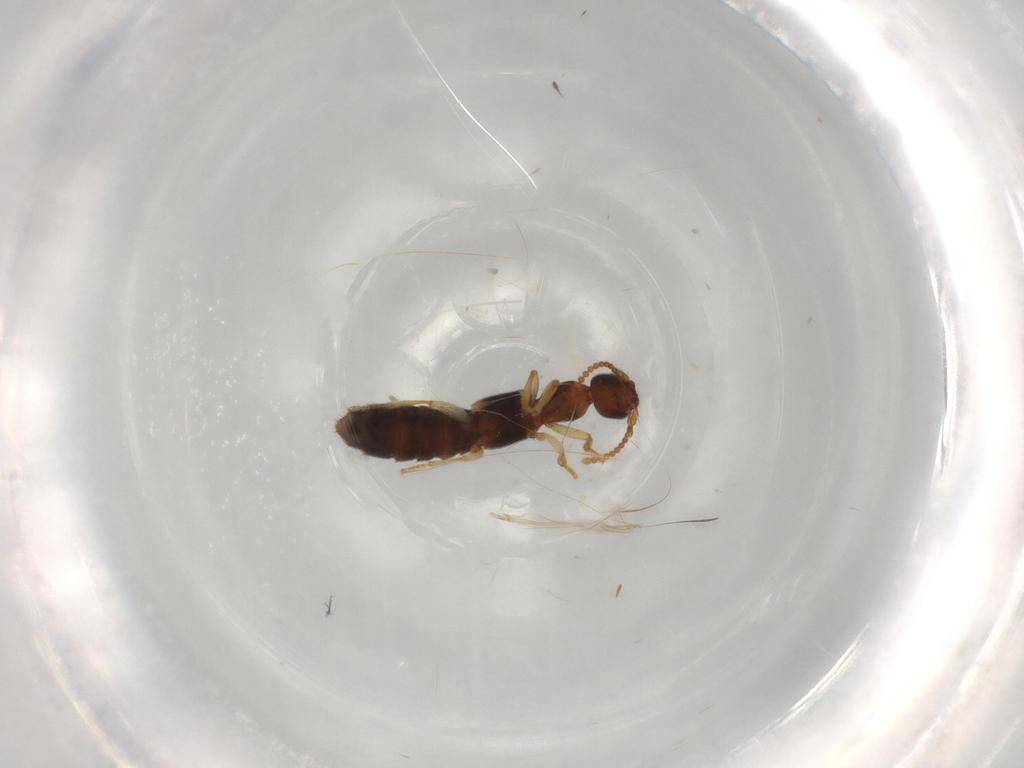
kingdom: Animalia
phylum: Arthropoda
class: Insecta
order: Coleoptera
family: Staphylinidae
